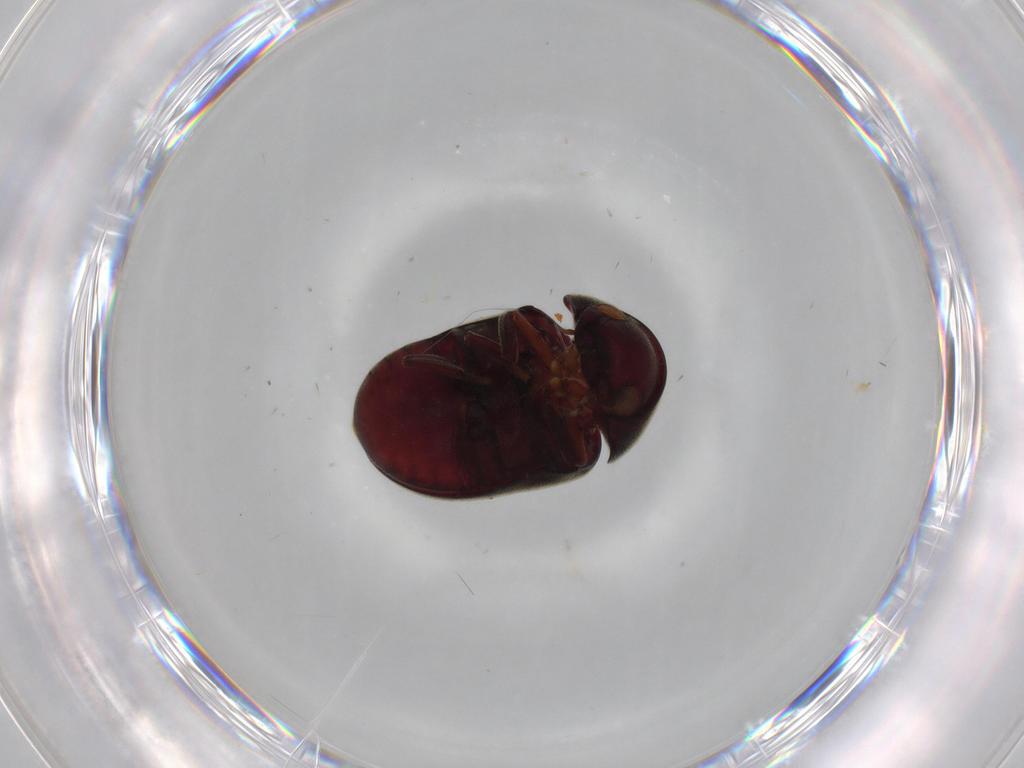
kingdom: Animalia
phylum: Arthropoda
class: Insecta
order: Coleoptera
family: Ptinidae
